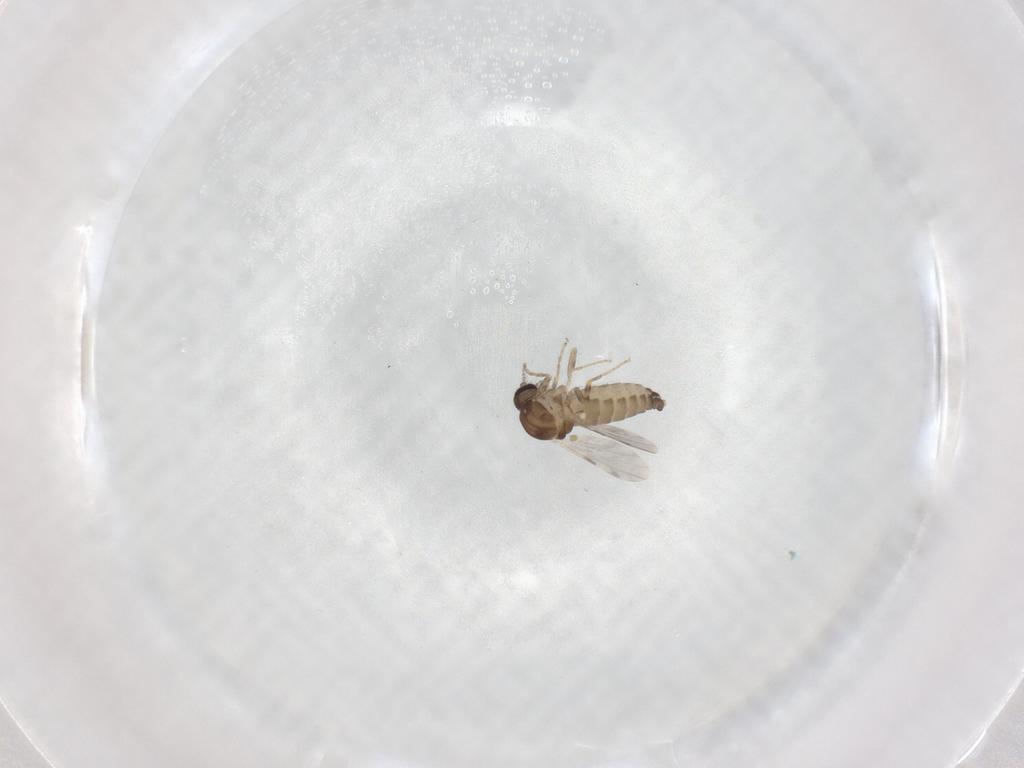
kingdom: Animalia
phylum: Arthropoda
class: Insecta
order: Diptera
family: Ceratopogonidae
